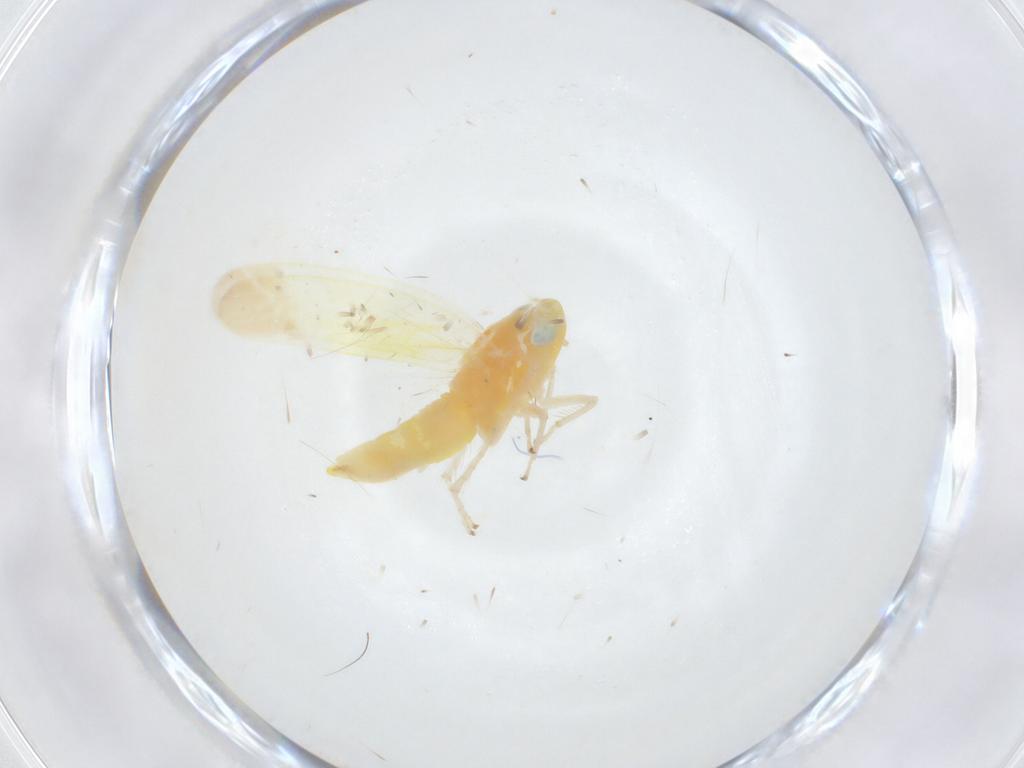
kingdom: Animalia
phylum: Arthropoda
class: Insecta
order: Hemiptera
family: Cicadellidae
